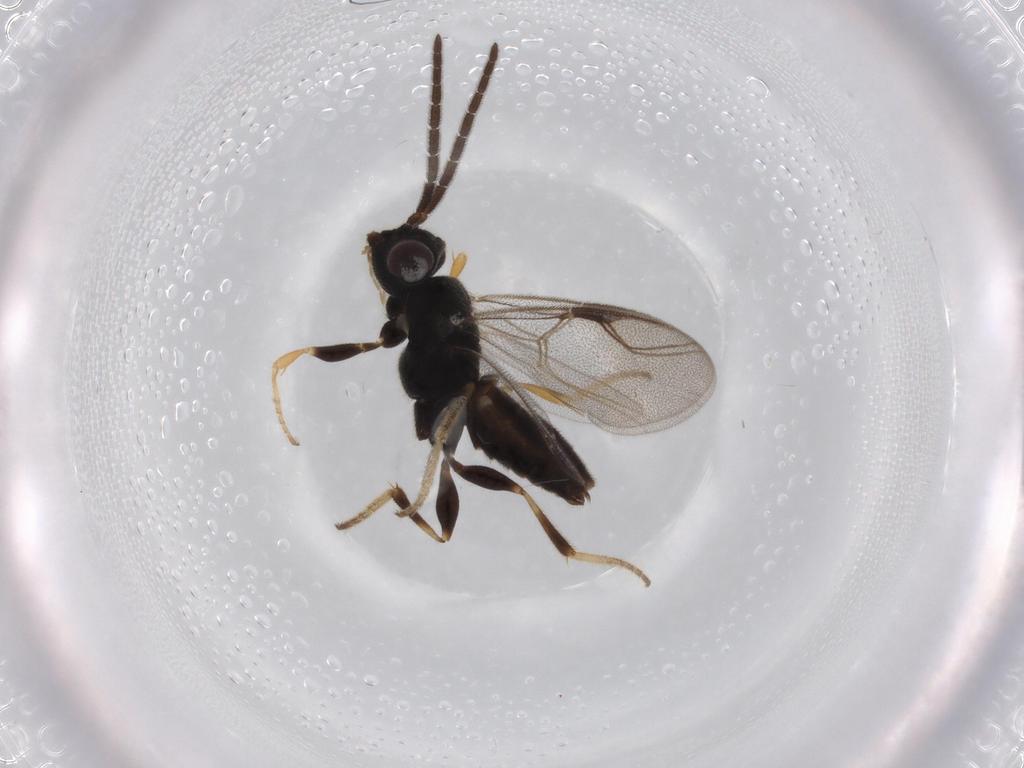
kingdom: Animalia
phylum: Arthropoda
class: Insecta
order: Hymenoptera
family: Dryinidae
